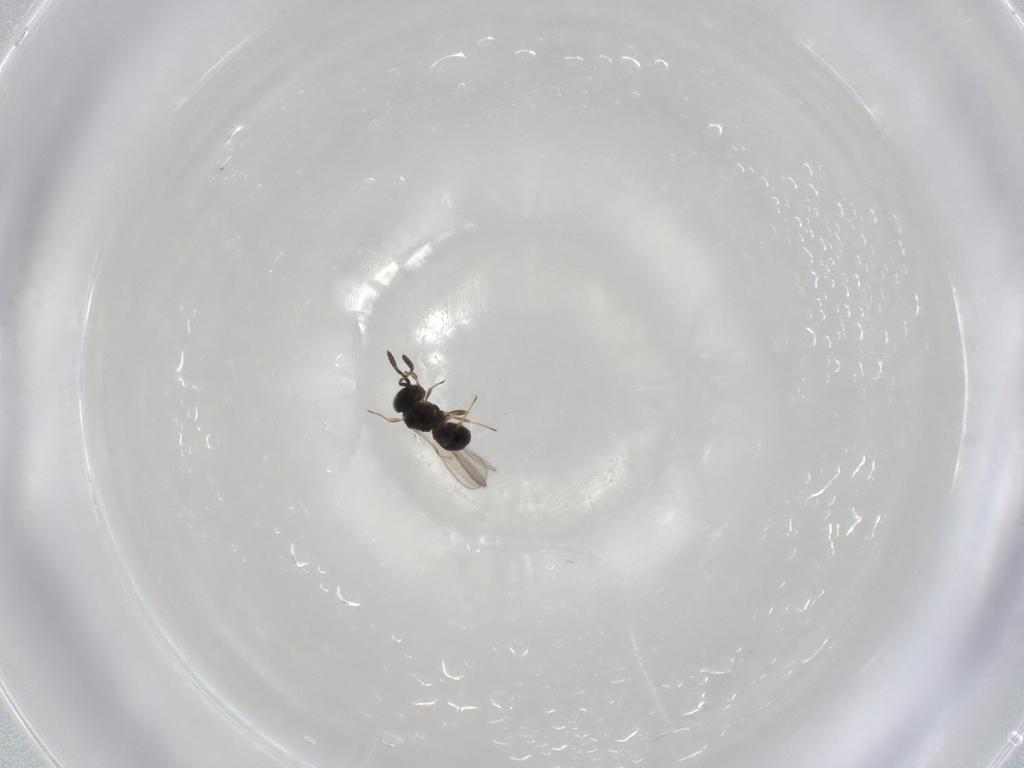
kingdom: Animalia
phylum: Arthropoda
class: Insecta
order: Hymenoptera
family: Scelionidae
